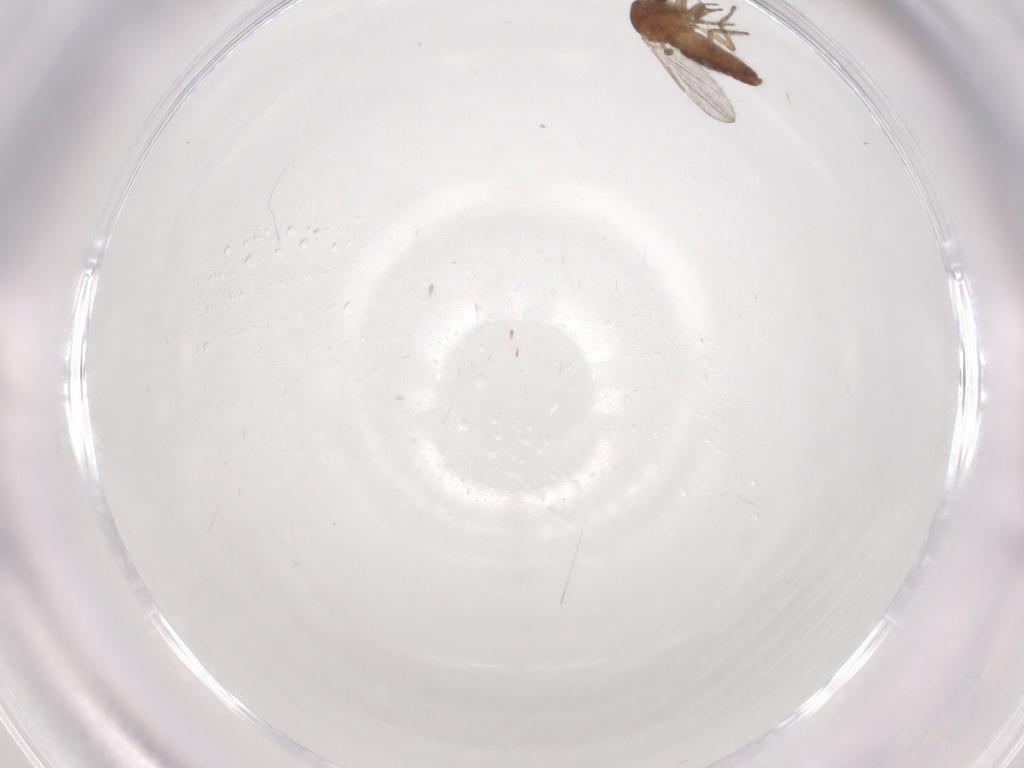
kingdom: Animalia
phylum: Arthropoda
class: Insecta
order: Diptera
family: Ceratopogonidae
